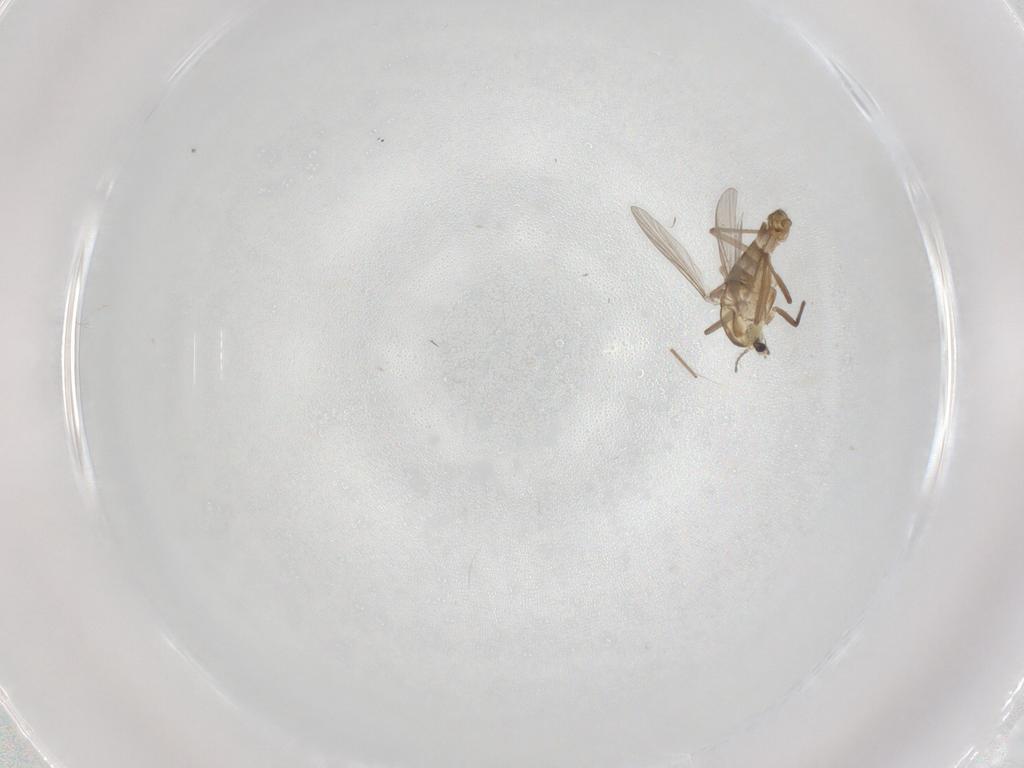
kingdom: Animalia
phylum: Arthropoda
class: Insecta
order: Diptera
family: Chironomidae
